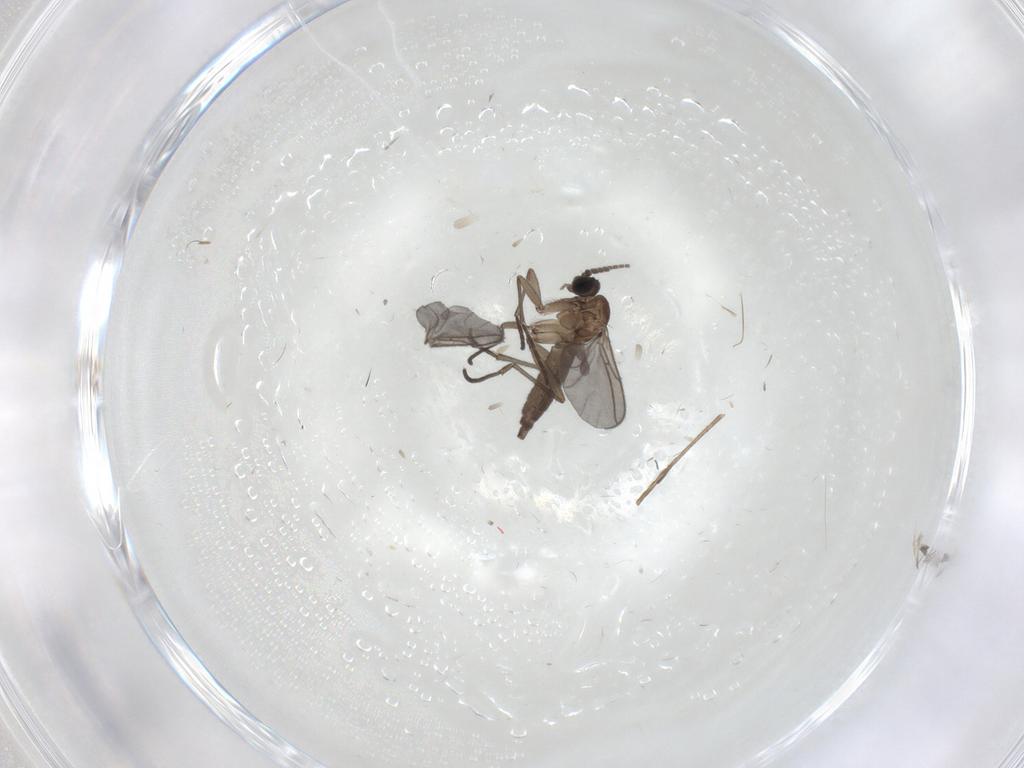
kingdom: Animalia
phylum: Arthropoda
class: Insecta
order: Diptera
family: Sciaridae
